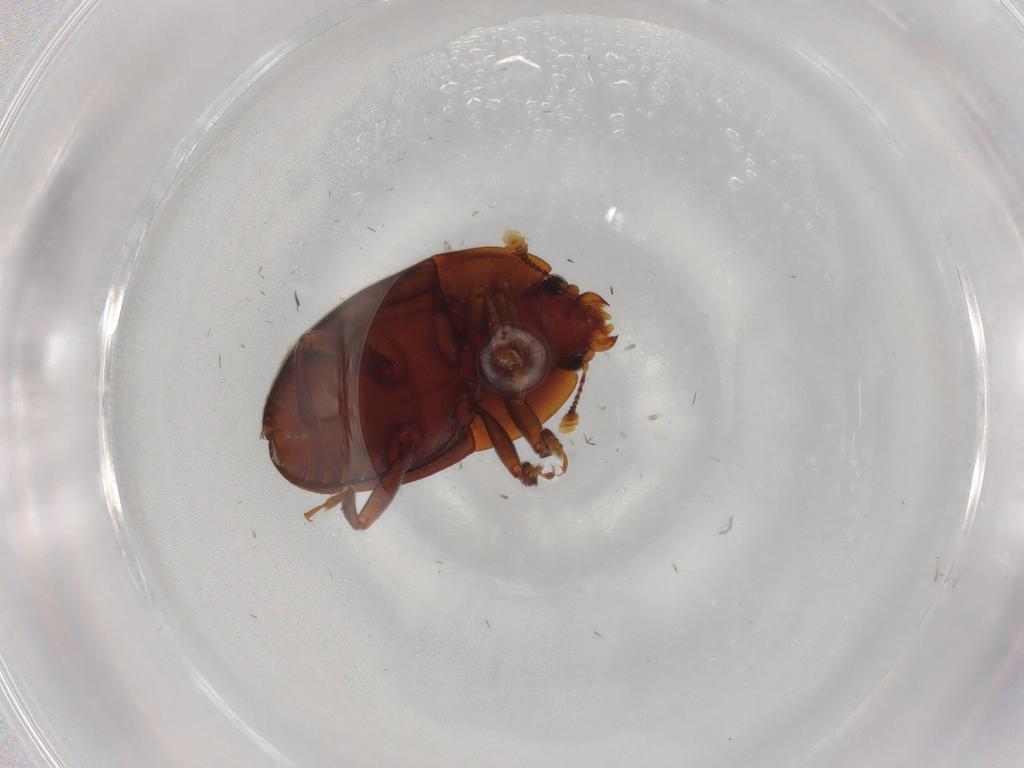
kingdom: Animalia
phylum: Arthropoda
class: Insecta
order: Coleoptera
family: Nitidulidae
